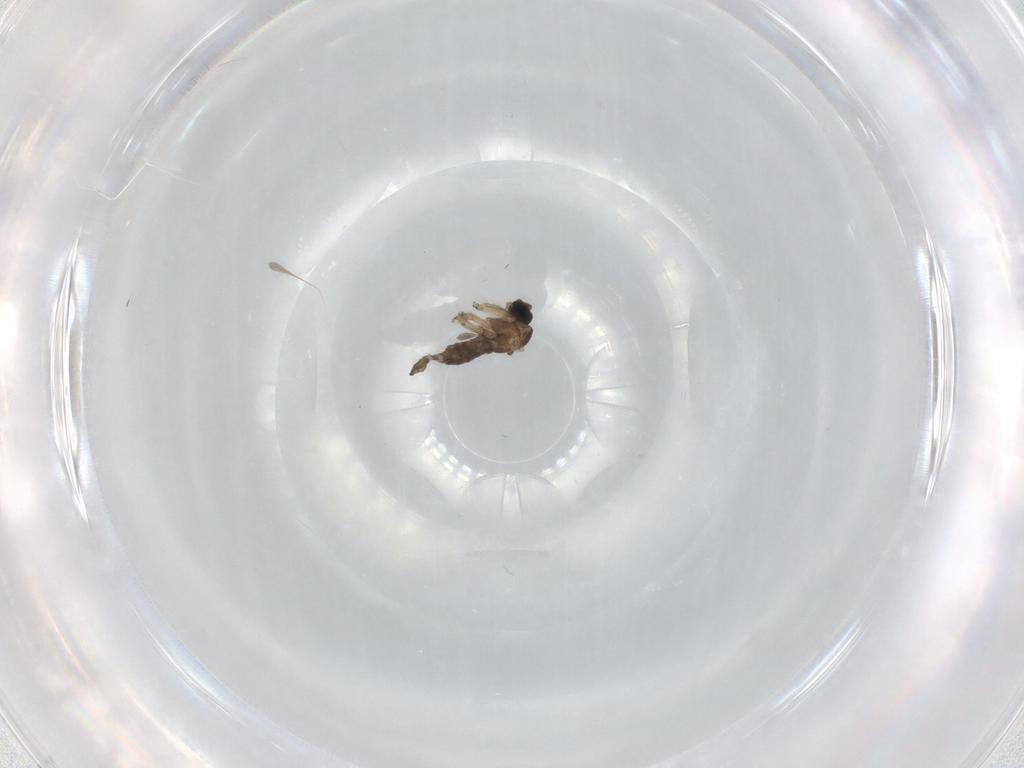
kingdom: Animalia
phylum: Arthropoda
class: Insecta
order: Diptera
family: Sciaridae
